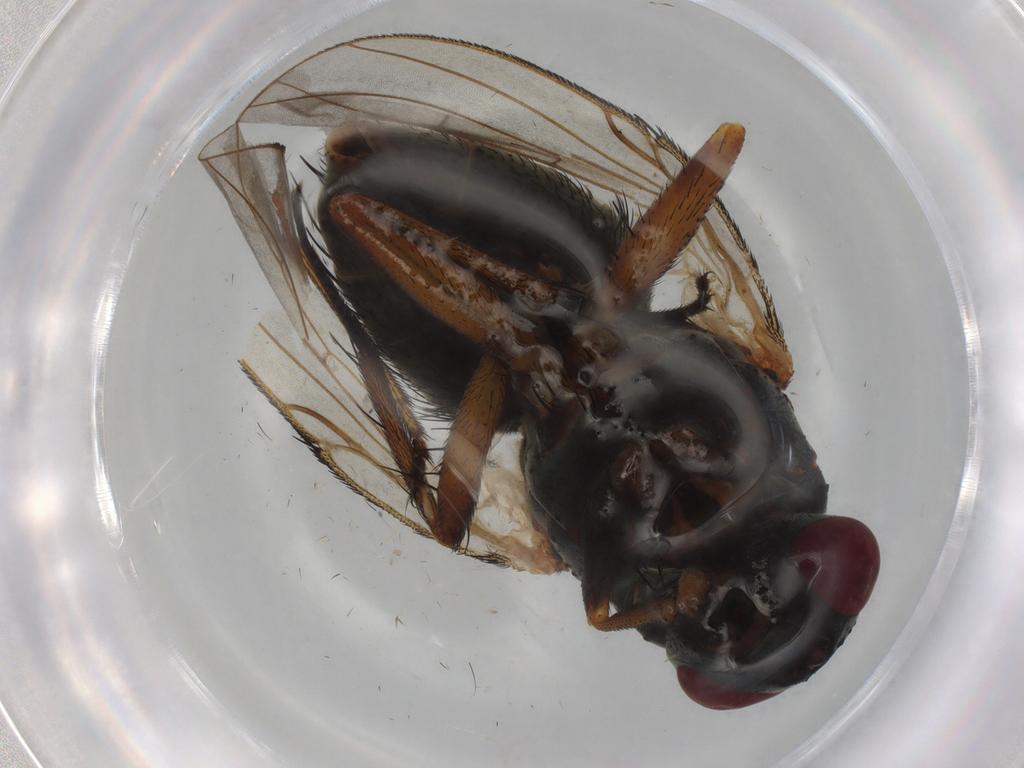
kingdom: Animalia
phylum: Arthropoda
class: Insecta
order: Diptera
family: Muscidae
